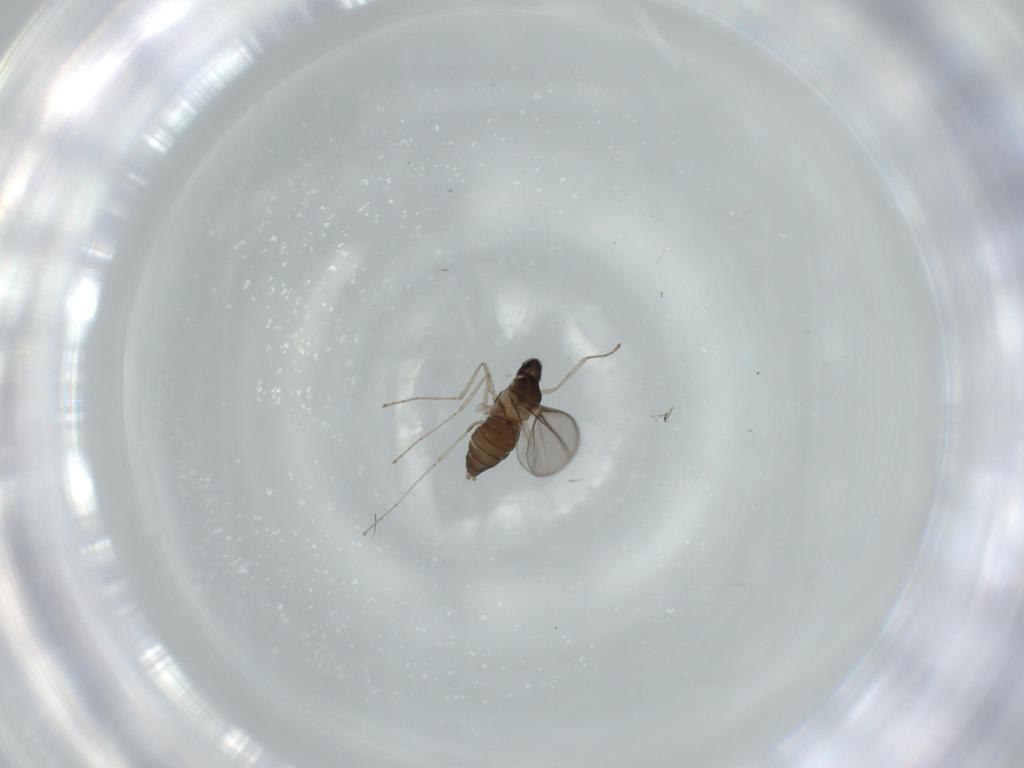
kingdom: Animalia
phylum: Arthropoda
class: Insecta
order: Diptera
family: Cecidomyiidae
